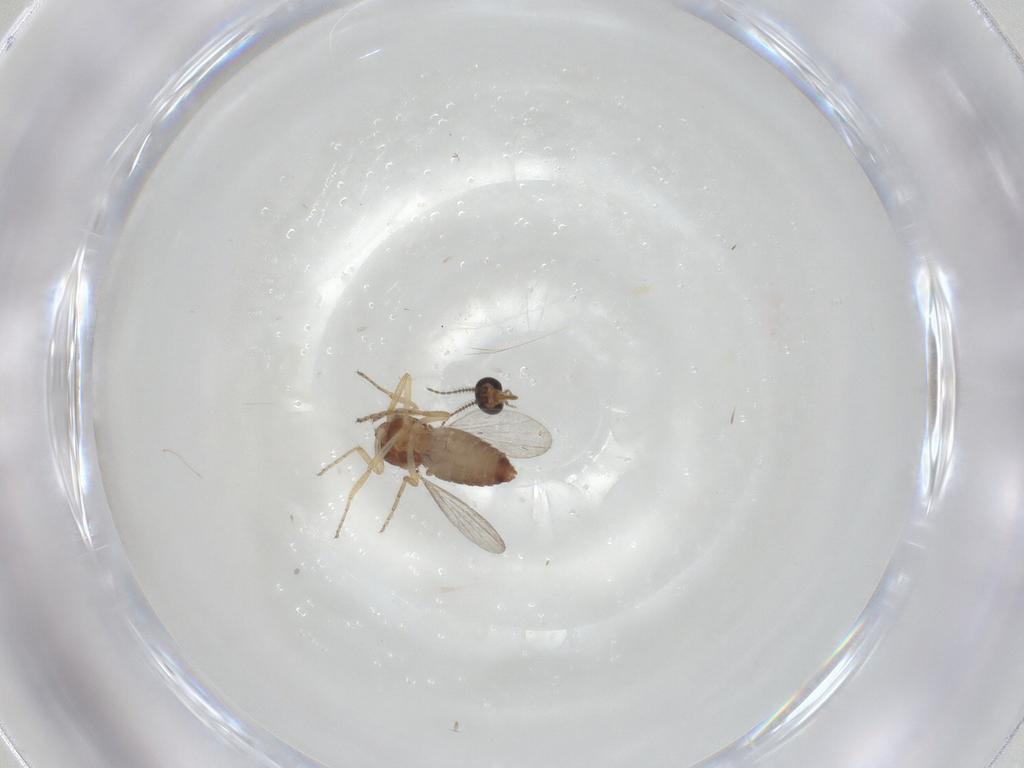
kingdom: Animalia
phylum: Arthropoda
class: Insecta
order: Diptera
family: Ceratopogonidae
